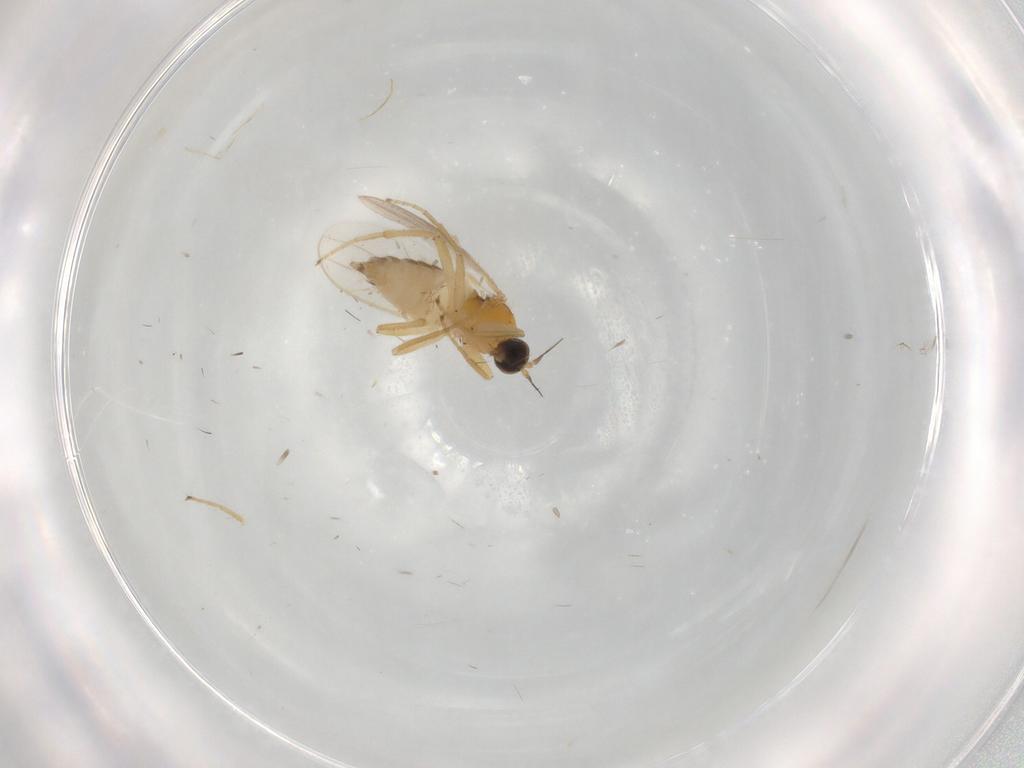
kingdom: Animalia
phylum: Arthropoda
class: Insecta
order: Diptera
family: Hybotidae
